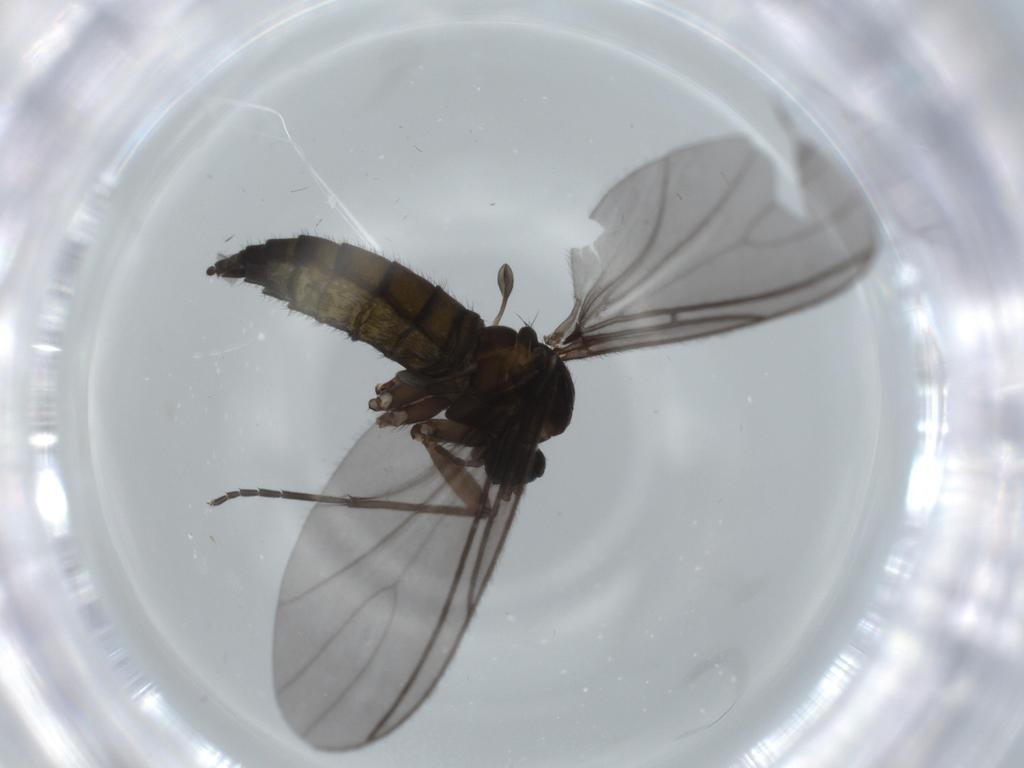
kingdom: Animalia
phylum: Arthropoda
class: Insecta
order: Diptera
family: Sciaridae
